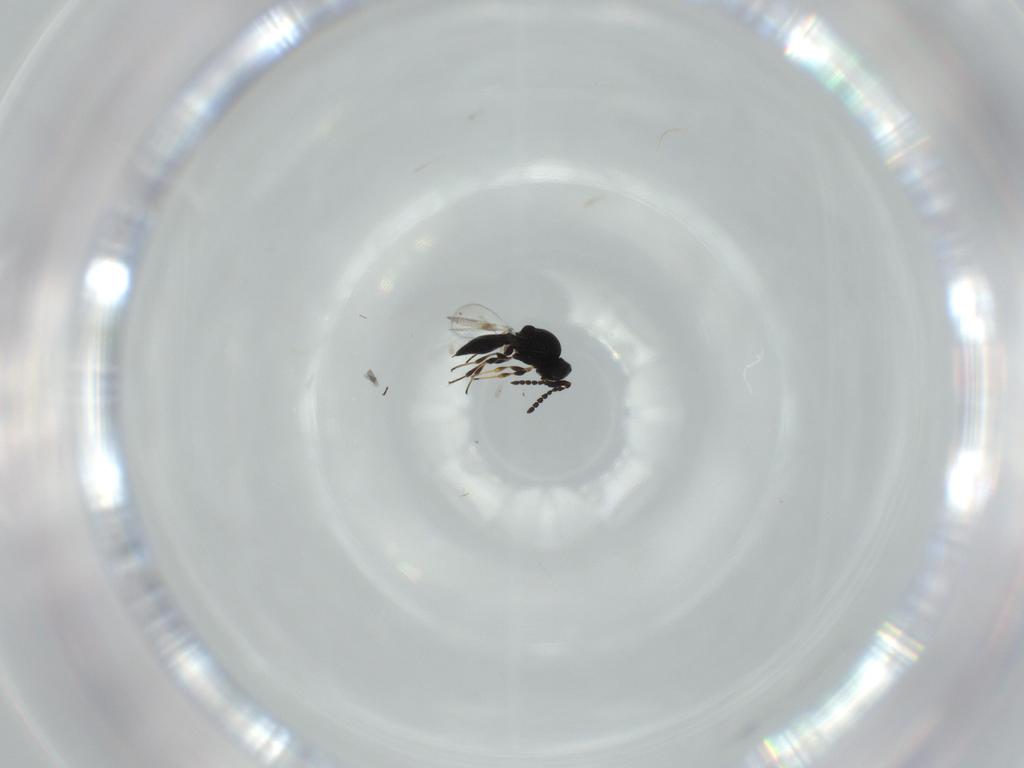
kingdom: Animalia
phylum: Arthropoda
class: Insecta
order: Hymenoptera
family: Platygastridae
